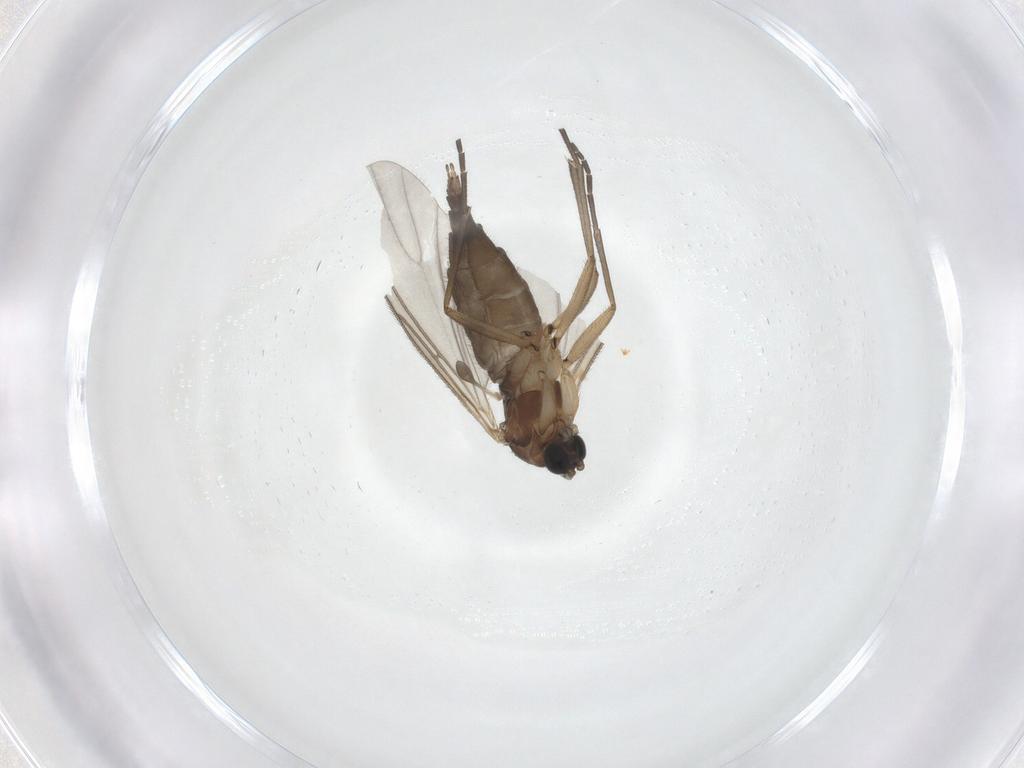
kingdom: Animalia
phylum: Arthropoda
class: Insecta
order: Diptera
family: Sciaridae
